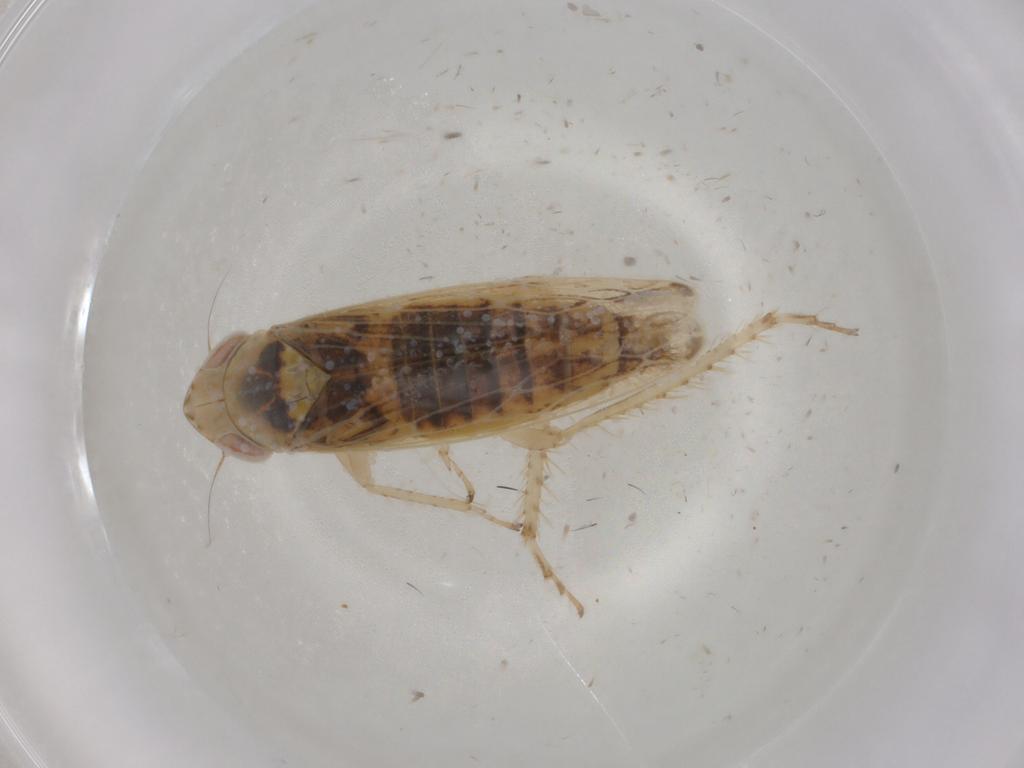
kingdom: Animalia
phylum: Arthropoda
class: Insecta
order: Hemiptera
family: Cicadellidae
